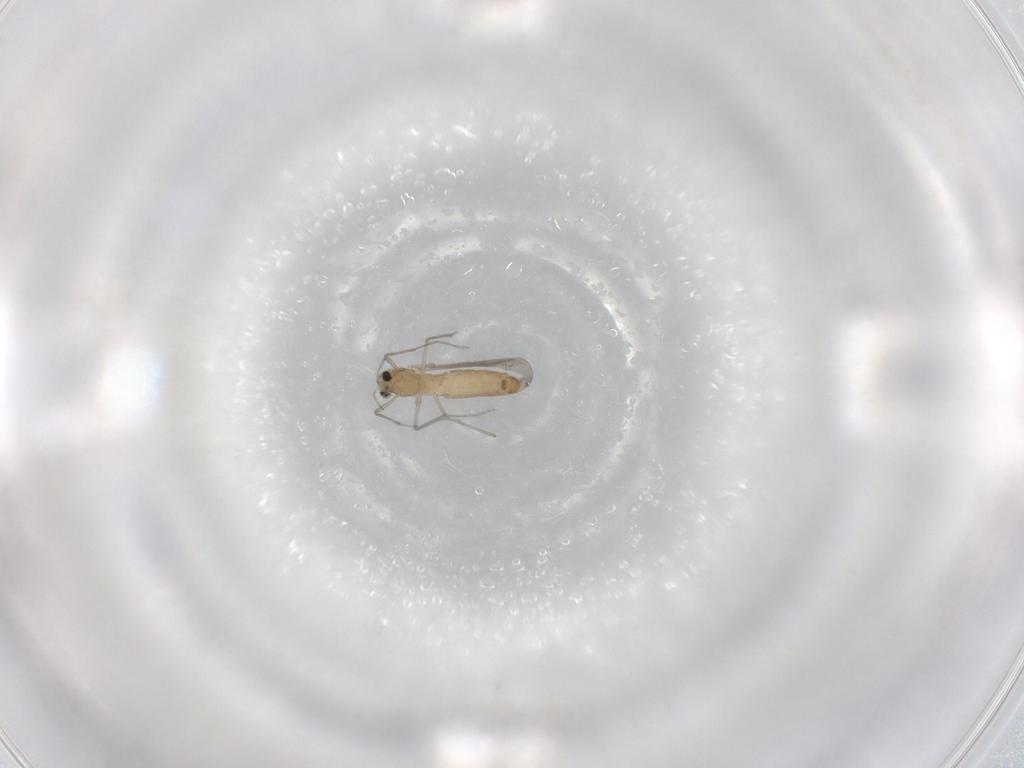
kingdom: Animalia
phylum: Arthropoda
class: Insecta
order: Diptera
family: Chironomidae
